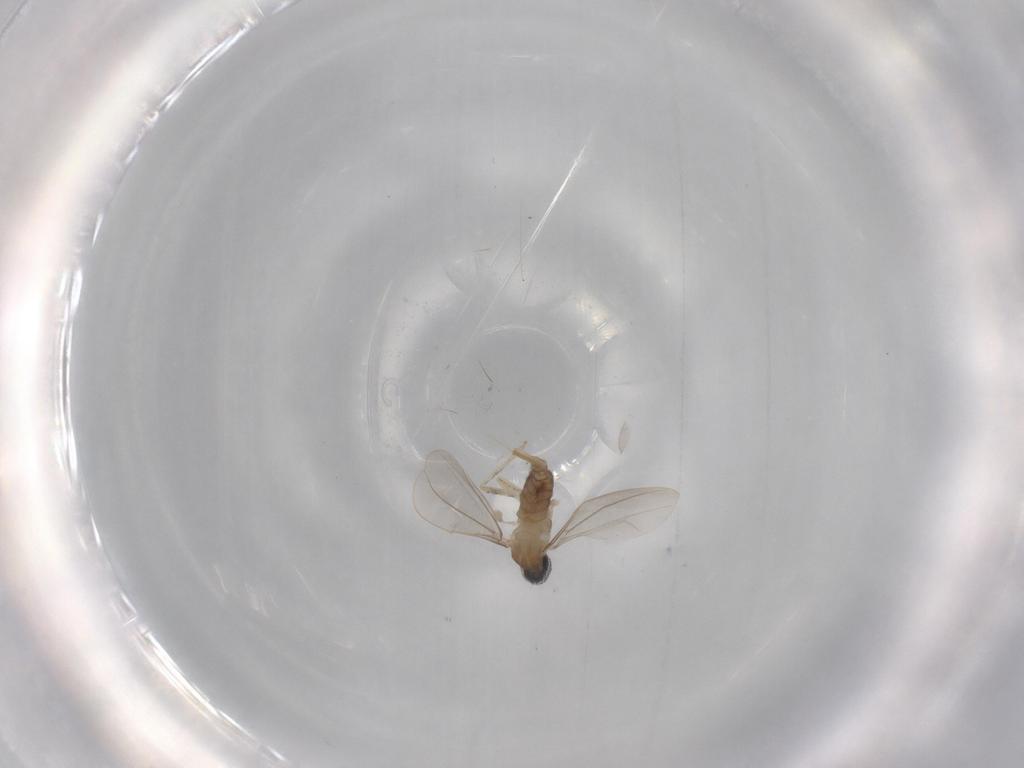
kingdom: Animalia
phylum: Arthropoda
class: Insecta
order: Diptera
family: Cecidomyiidae
